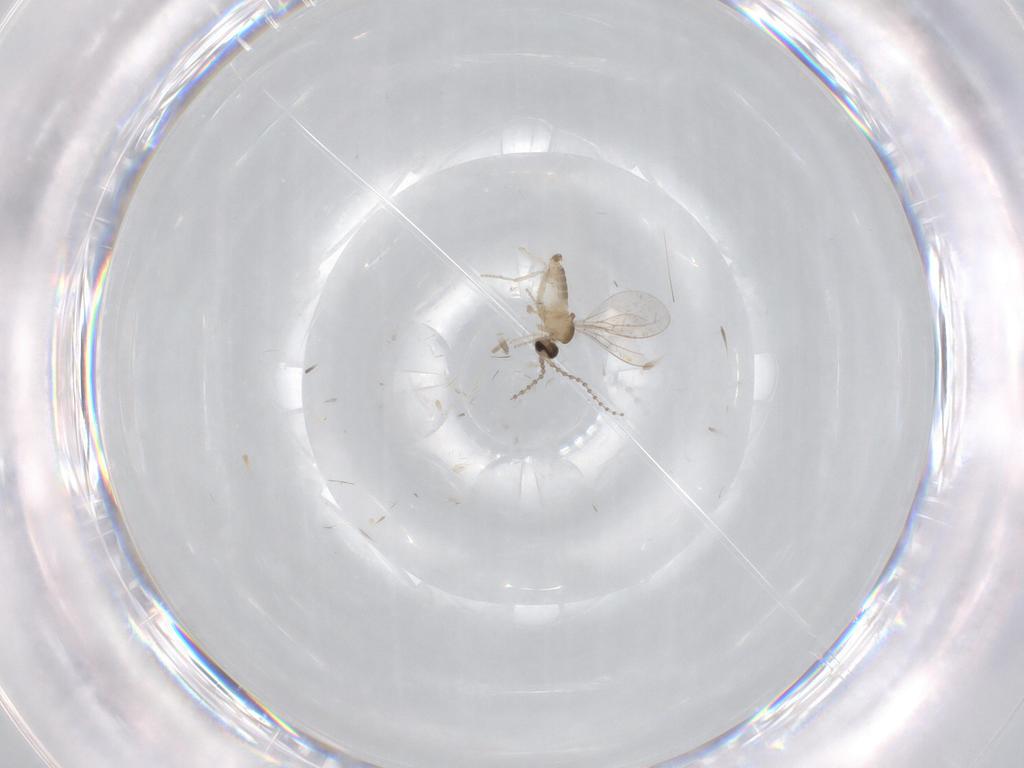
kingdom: Animalia
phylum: Arthropoda
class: Insecta
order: Diptera
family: Cecidomyiidae
